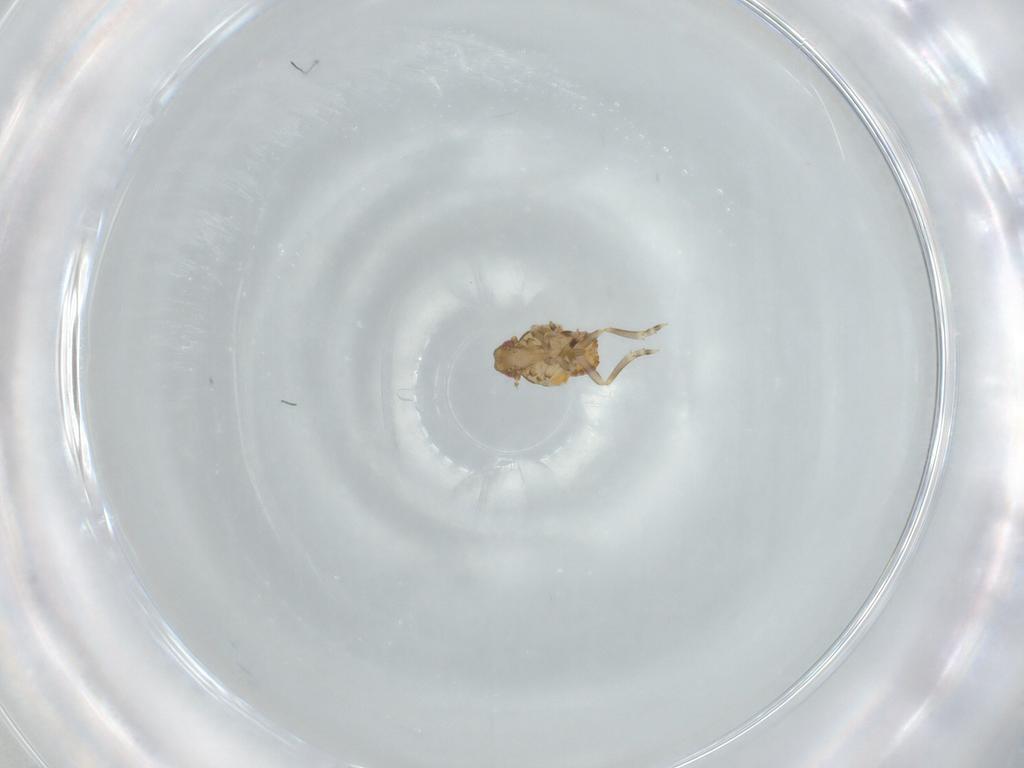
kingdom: Animalia
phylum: Arthropoda
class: Insecta
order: Hemiptera
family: Flatidae
